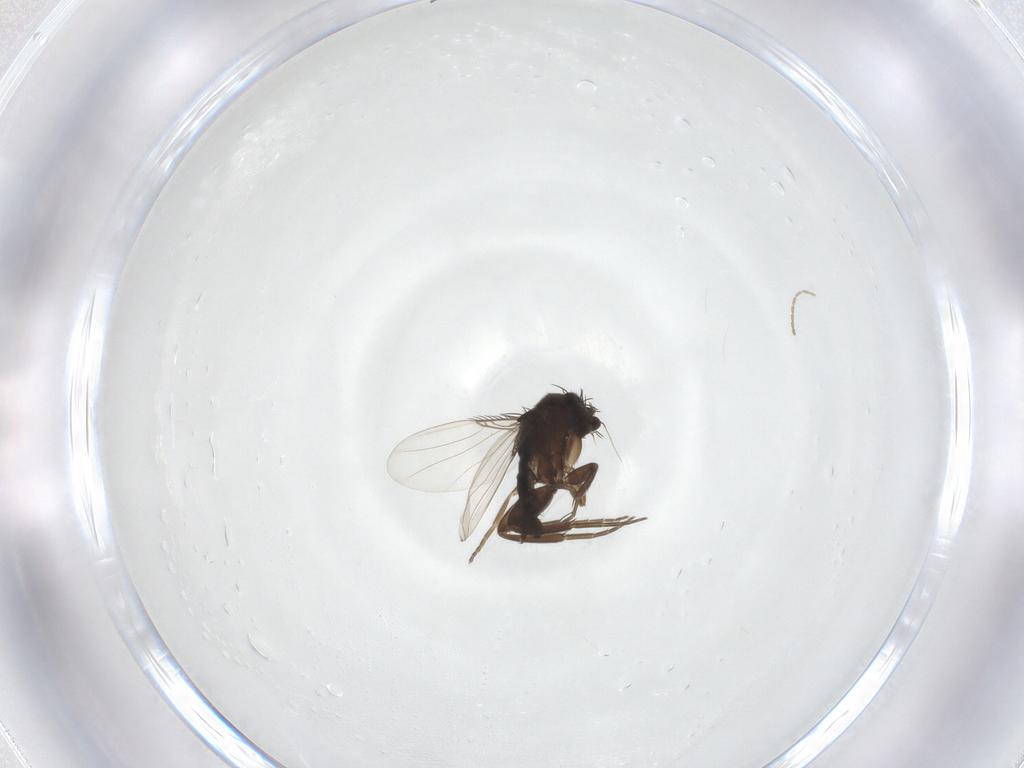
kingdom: Animalia
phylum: Arthropoda
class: Insecta
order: Diptera
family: Cecidomyiidae
